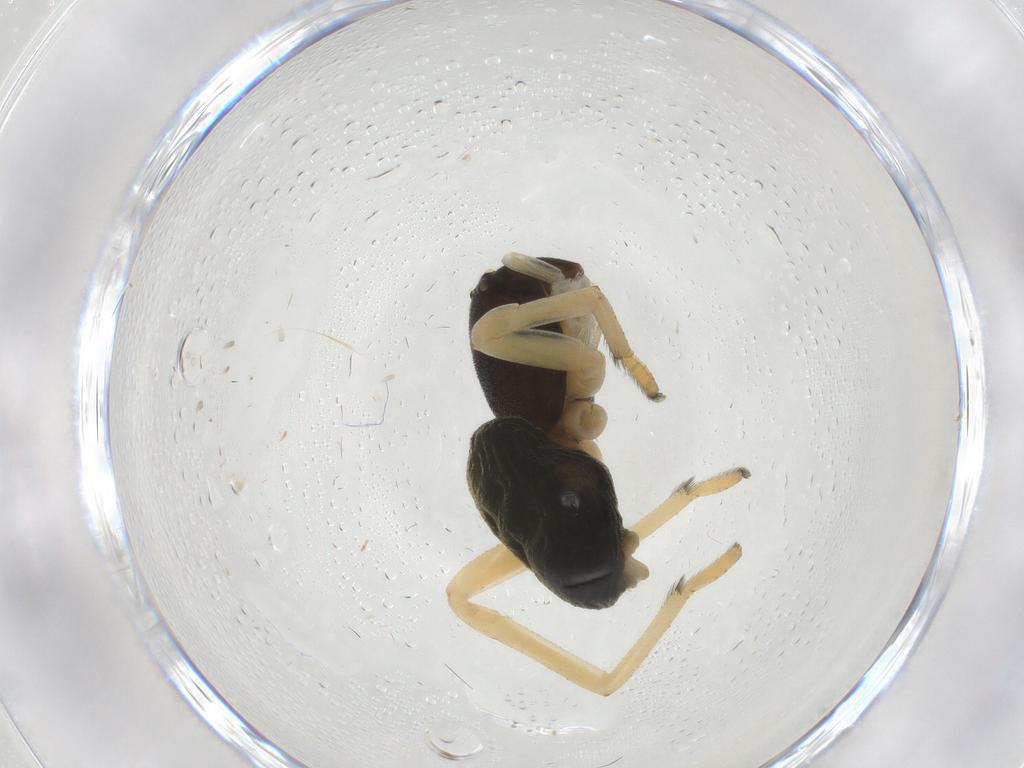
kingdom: Animalia
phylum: Arthropoda
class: Arachnida
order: Araneae
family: Trachelidae
